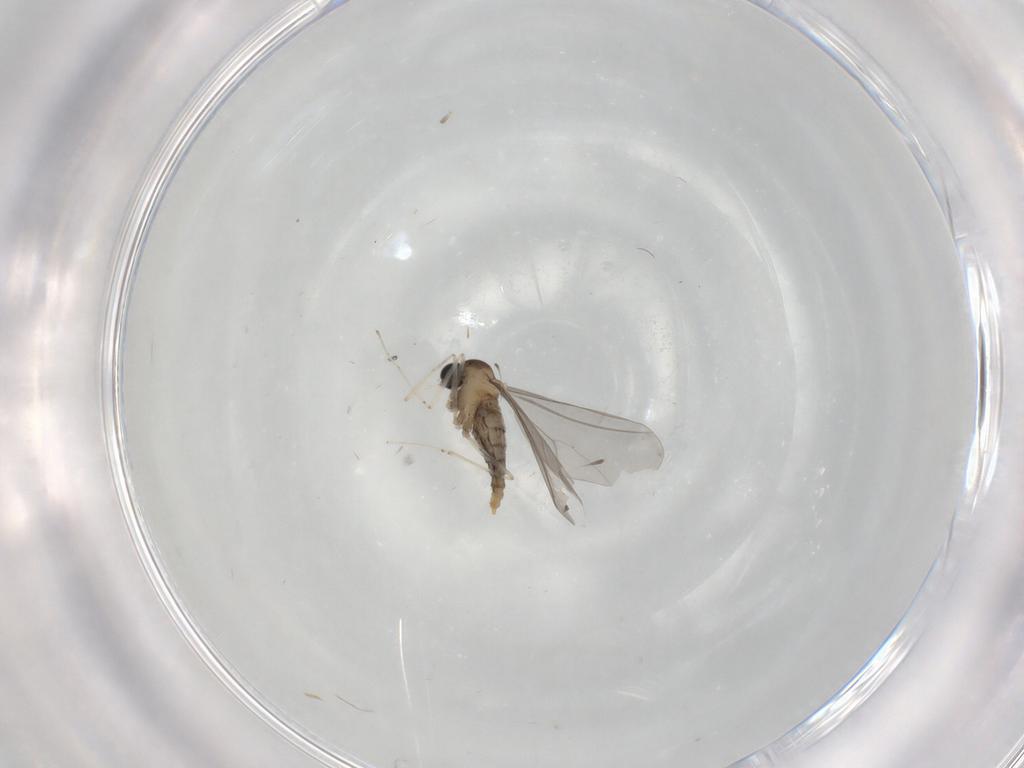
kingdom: Animalia
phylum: Arthropoda
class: Insecta
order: Diptera
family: Cecidomyiidae
